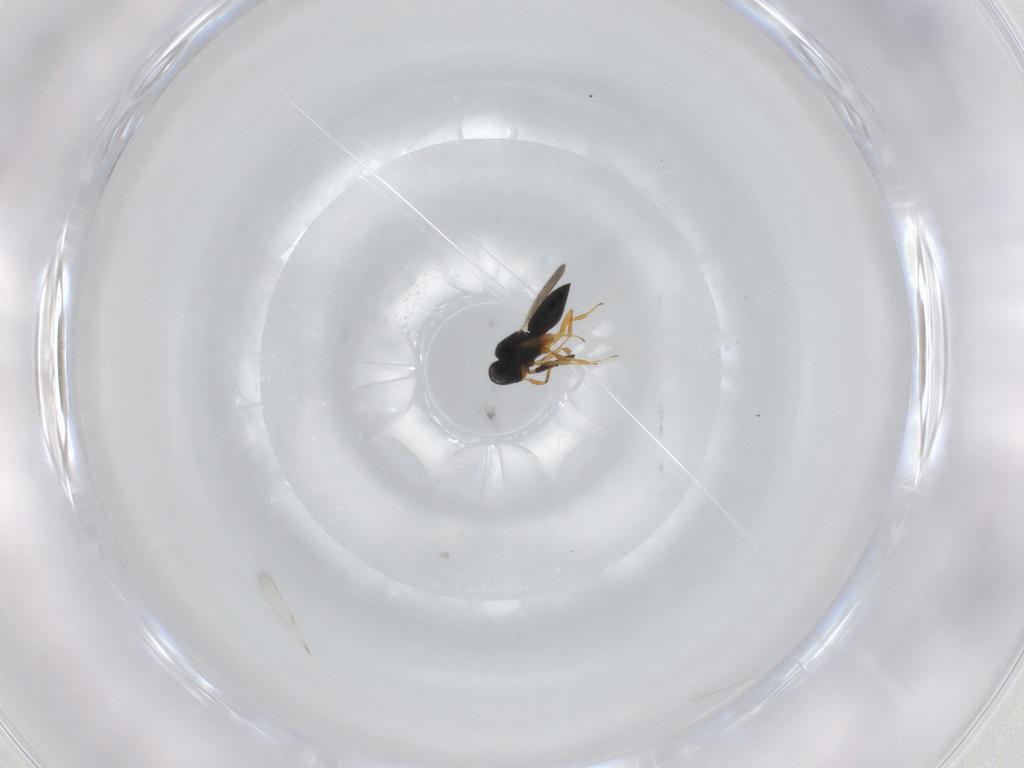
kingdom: Animalia
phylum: Arthropoda
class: Insecta
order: Hymenoptera
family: Scelionidae
